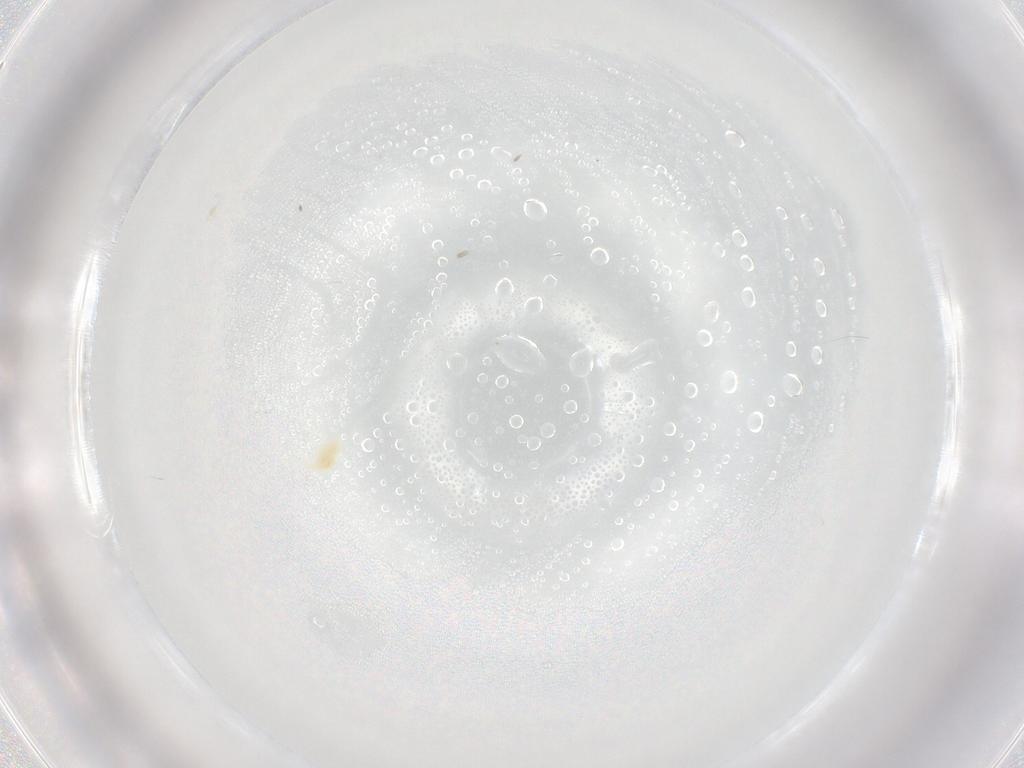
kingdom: Animalia
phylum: Arthropoda
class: Arachnida
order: Trombidiformes
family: Eupodidae
